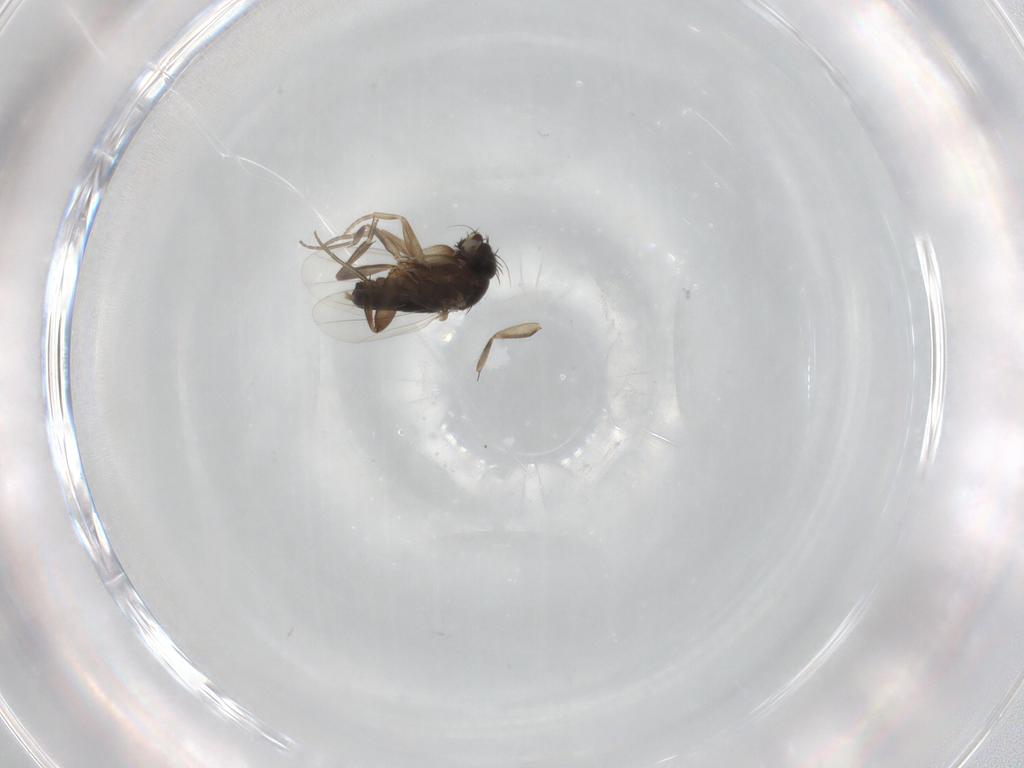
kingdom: Animalia
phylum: Arthropoda
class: Insecta
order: Diptera
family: Phoridae
